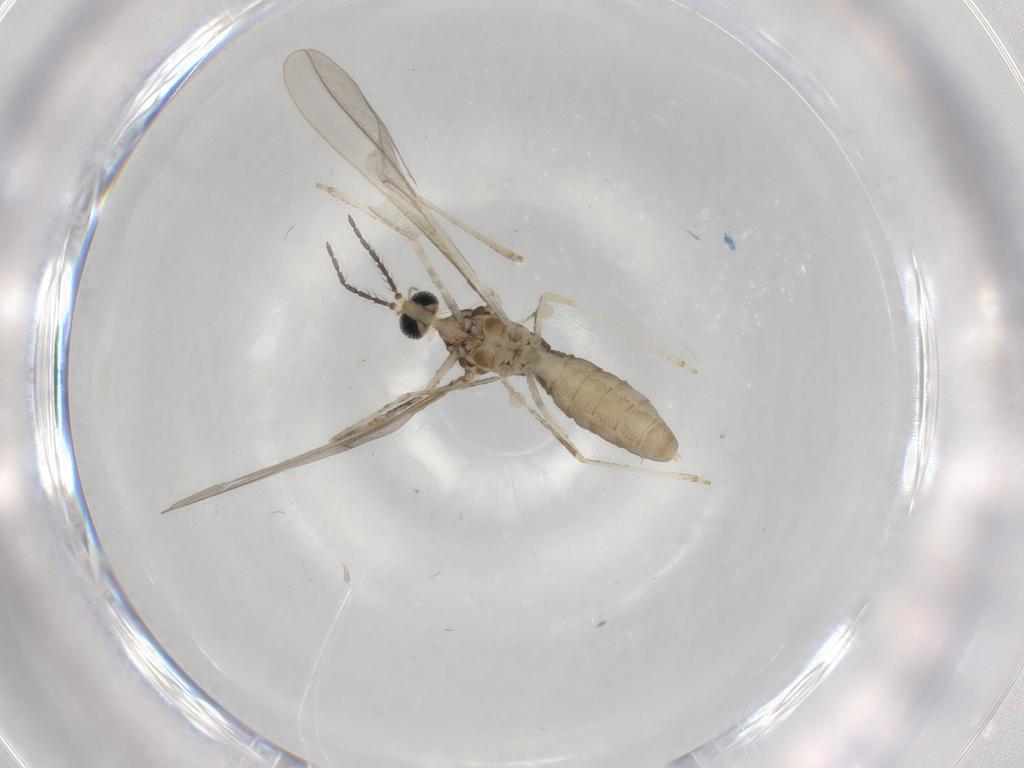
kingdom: Animalia
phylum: Arthropoda
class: Insecta
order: Diptera
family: Cecidomyiidae
